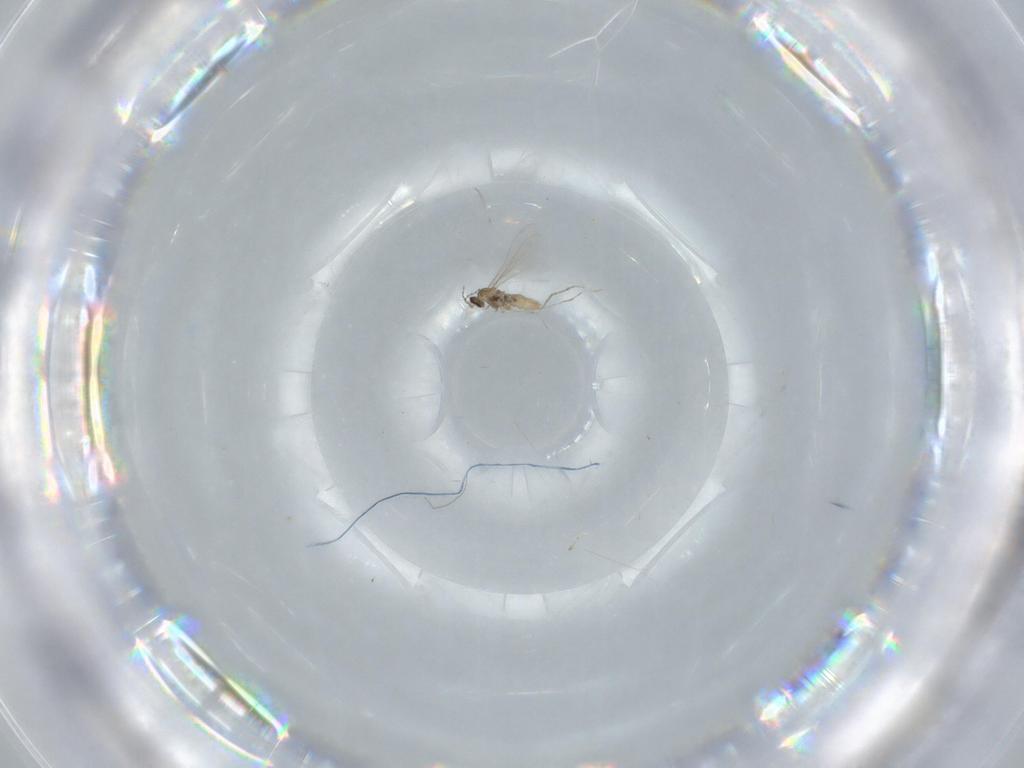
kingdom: Animalia
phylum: Arthropoda
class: Insecta
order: Diptera
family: Cecidomyiidae
